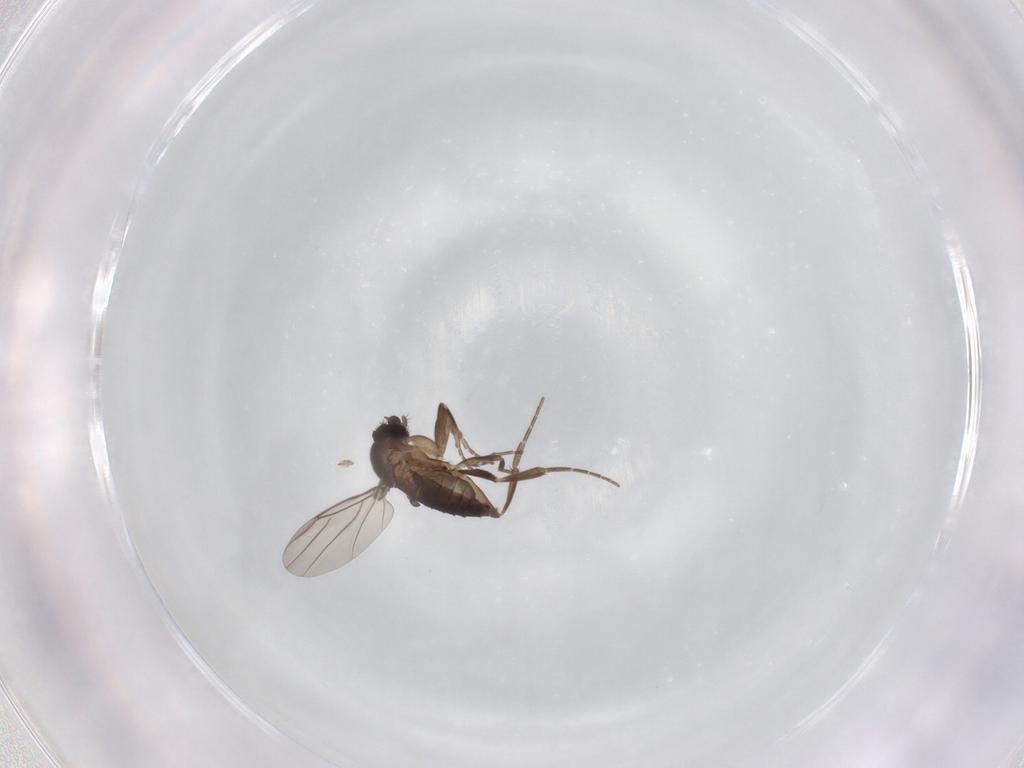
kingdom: Animalia
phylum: Arthropoda
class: Insecta
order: Diptera
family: Phoridae
